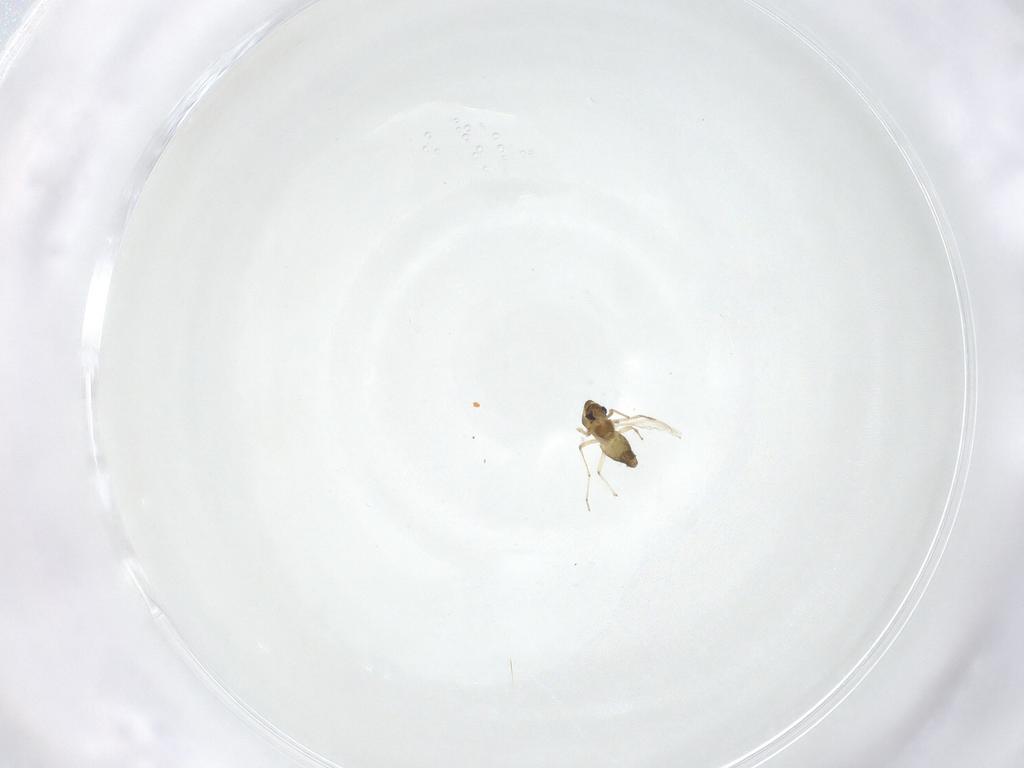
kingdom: Animalia
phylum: Arthropoda
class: Insecta
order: Diptera
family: Chironomidae
